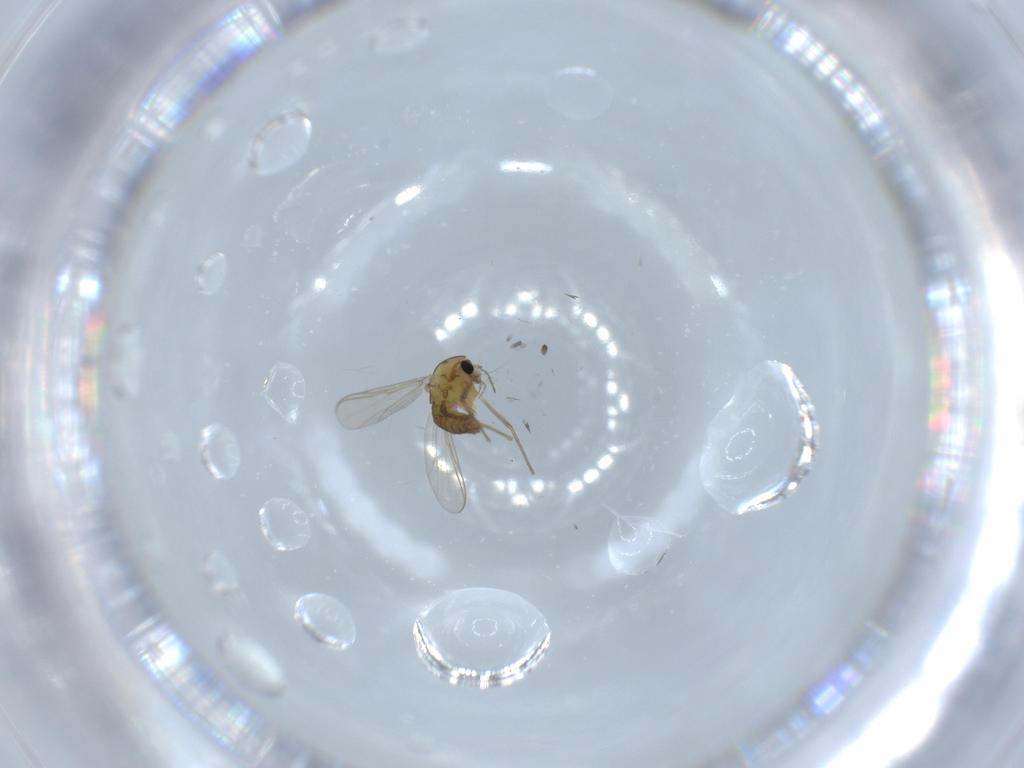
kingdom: Animalia
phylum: Arthropoda
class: Insecta
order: Diptera
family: Chironomidae
